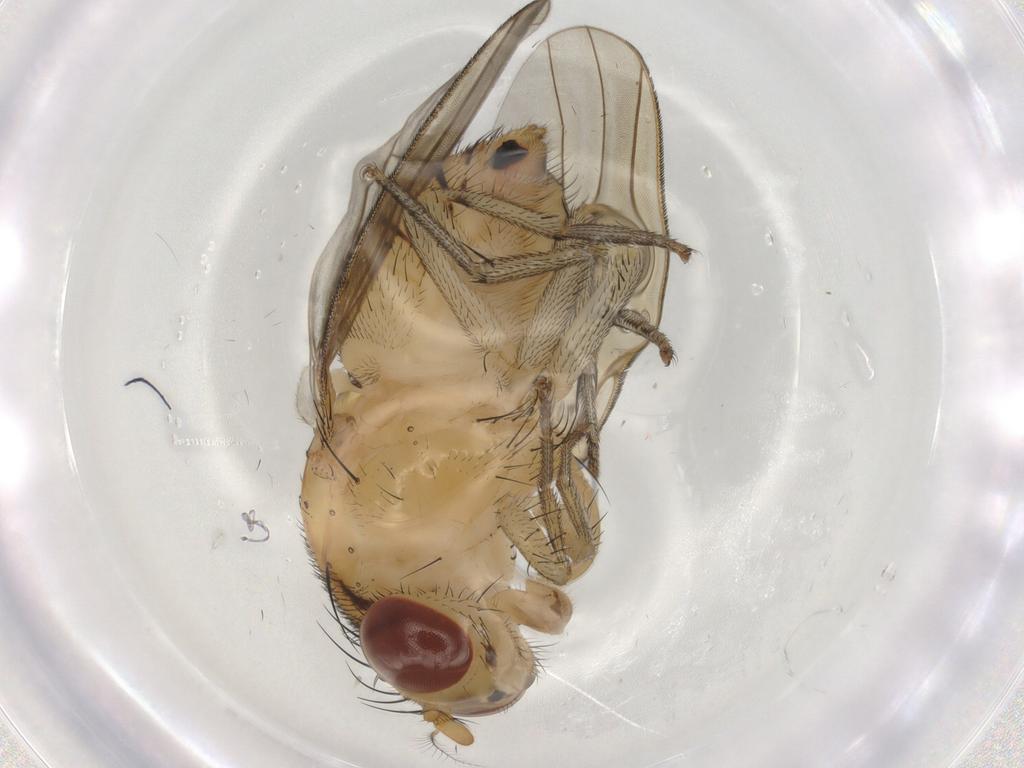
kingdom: Animalia
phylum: Arthropoda
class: Insecta
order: Diptera
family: Lauxaniidae
